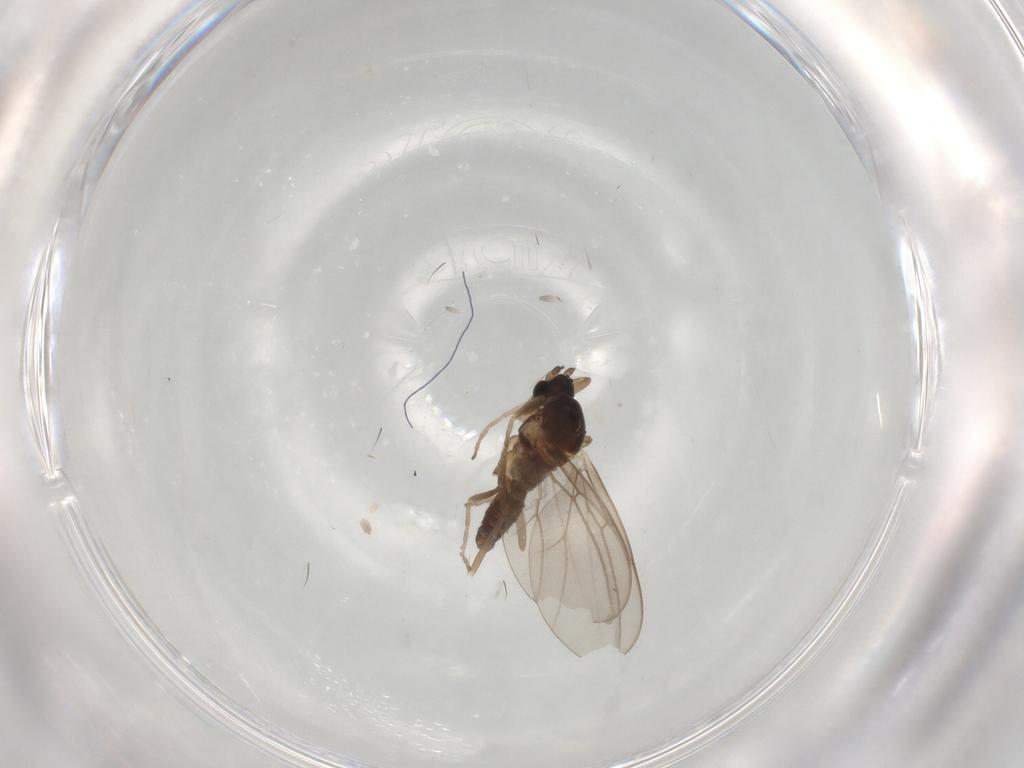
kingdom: Animalia
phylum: Arthropoda
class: Insecta
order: Diptera
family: Cecidomyiidae
